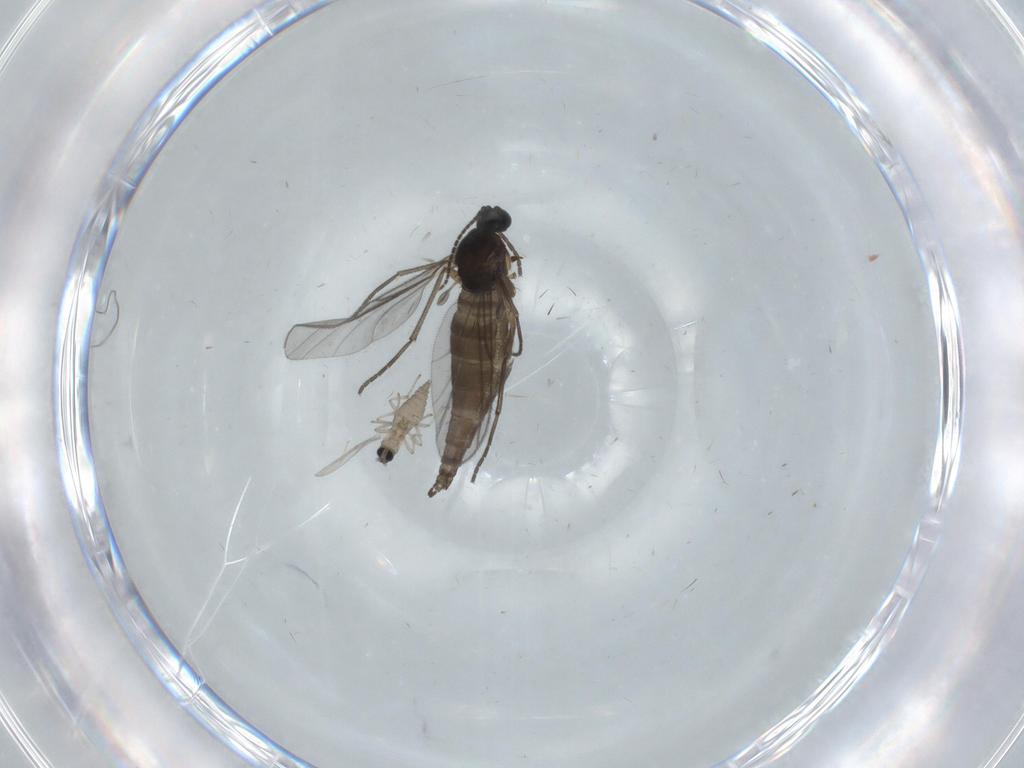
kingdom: Animalia
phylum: Arthropoda
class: Insecta
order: Diptera
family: Sciaridae
